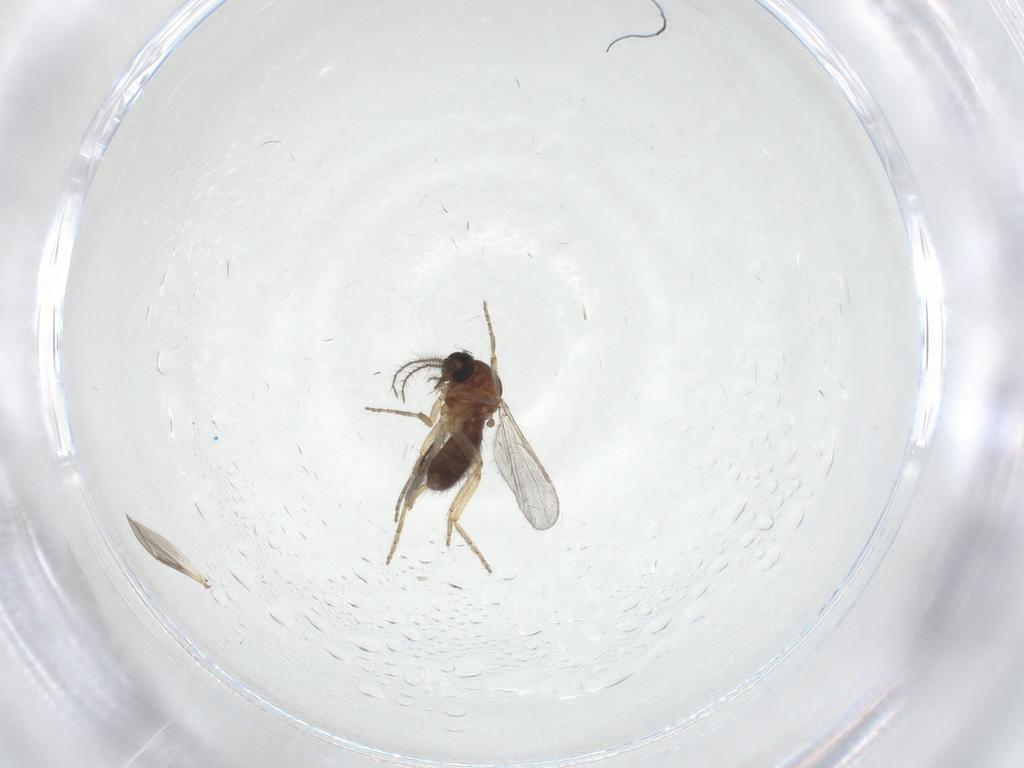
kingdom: Animalia
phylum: Arthropoda
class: Insecta
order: Diptera
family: Ceratopogonidae
